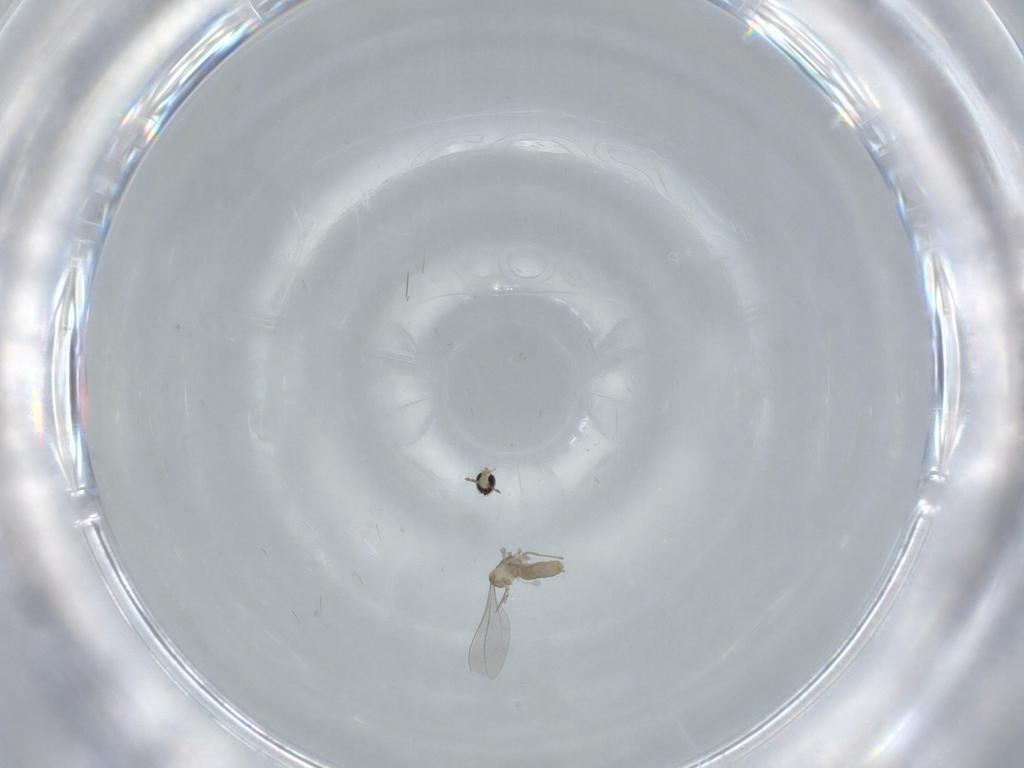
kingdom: Animalia
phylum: Arthropoda
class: Insecta
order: Diptera
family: Cecidomyiidae
